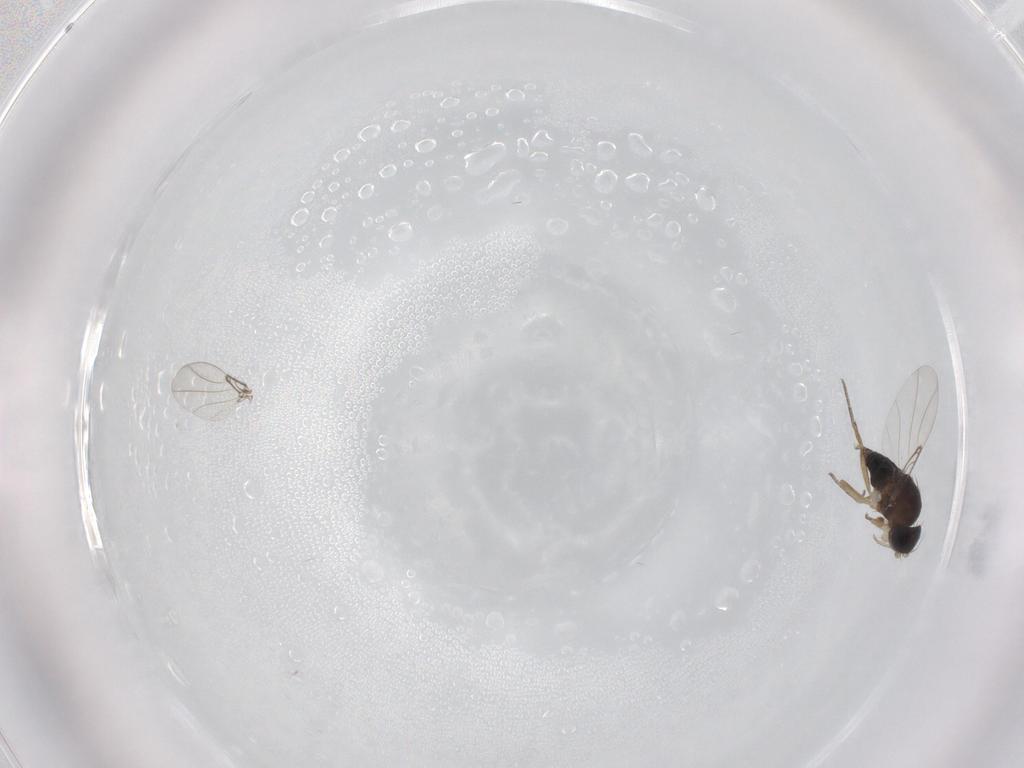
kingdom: Animalia
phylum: Arthropoda
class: Insecta
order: Diptera
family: Phoridae
